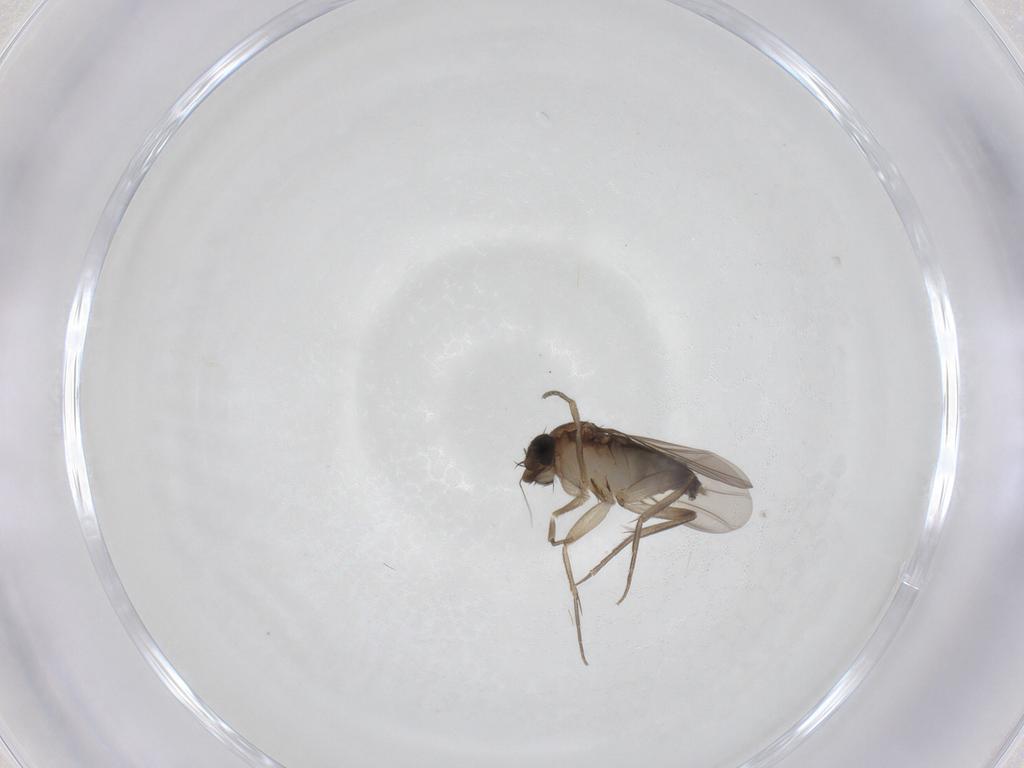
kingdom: Animalia
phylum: Arthropoda
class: Insecta
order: Diptera
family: Phoridae
